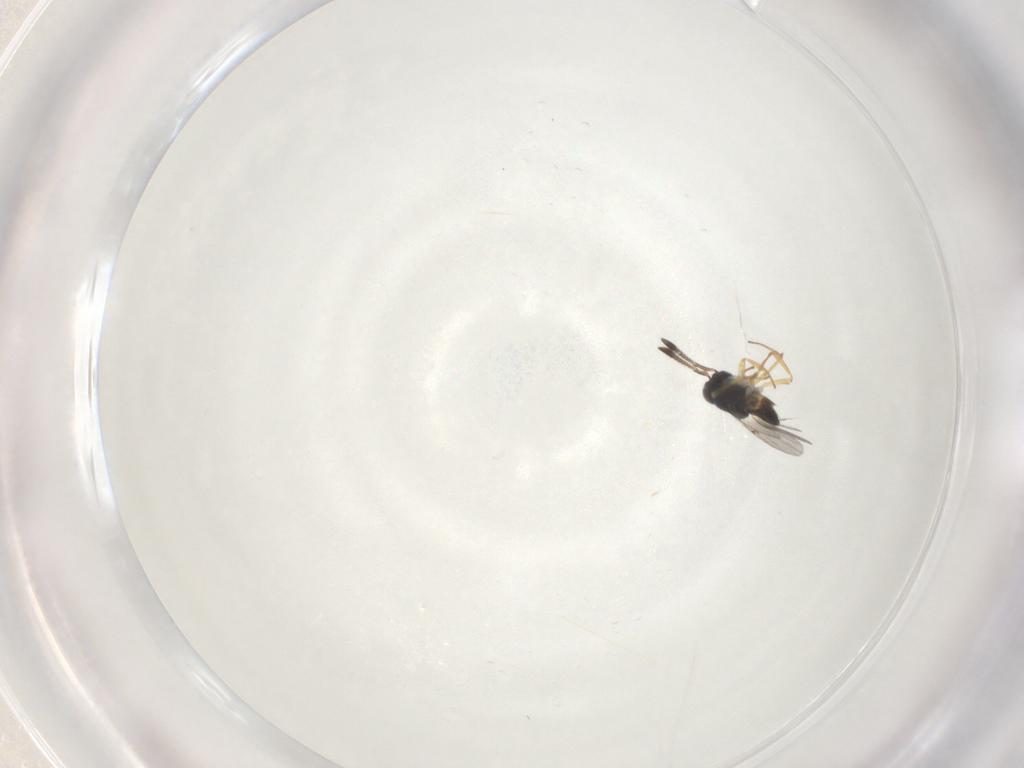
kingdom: Animalia
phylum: Arthropoda
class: Insecta
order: Hymenoptera
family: Tiphiidae
